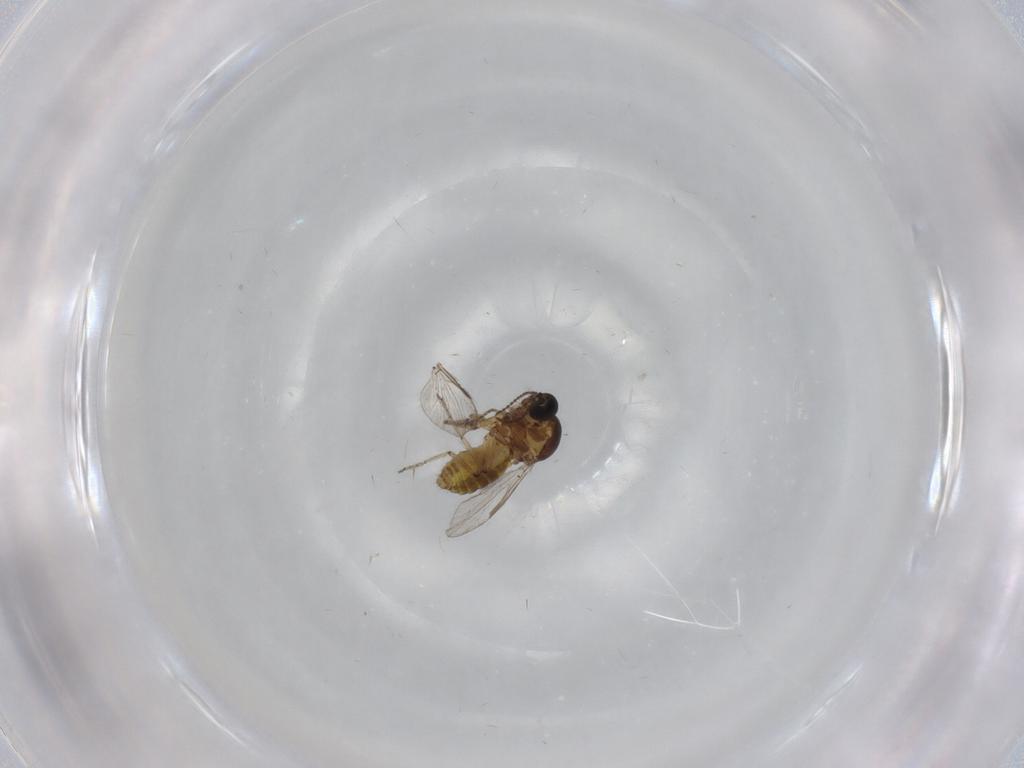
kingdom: Animalia
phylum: Arthropoda
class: Insecta
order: Diptera
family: Ceratopogonidae
